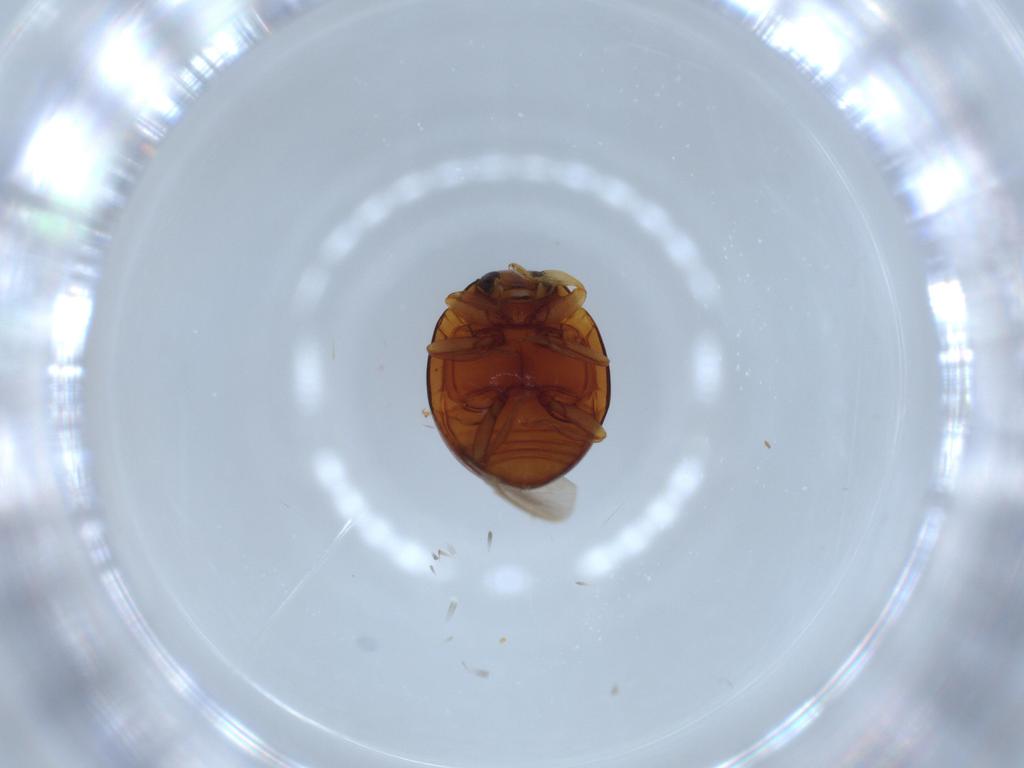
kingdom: Animalia
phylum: Arthropoda
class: Insecta
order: Coleoptera
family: Coccinellidae
